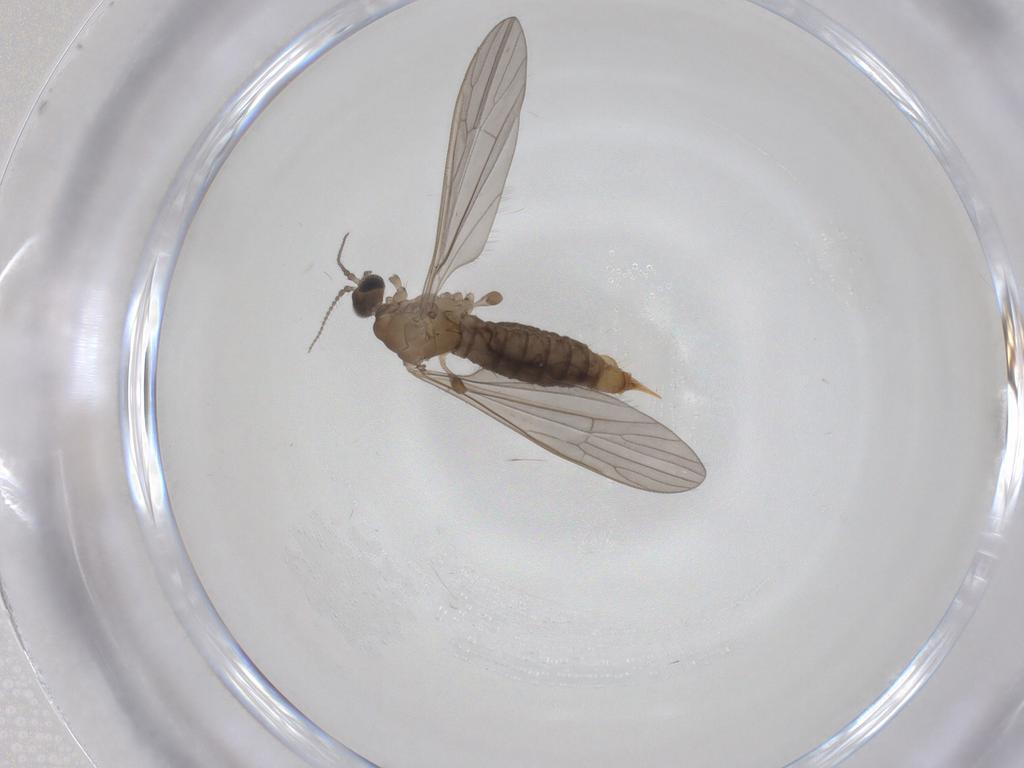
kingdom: Animalia
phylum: Arthropoda
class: Insecta
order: Diptera
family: Limoniidae
